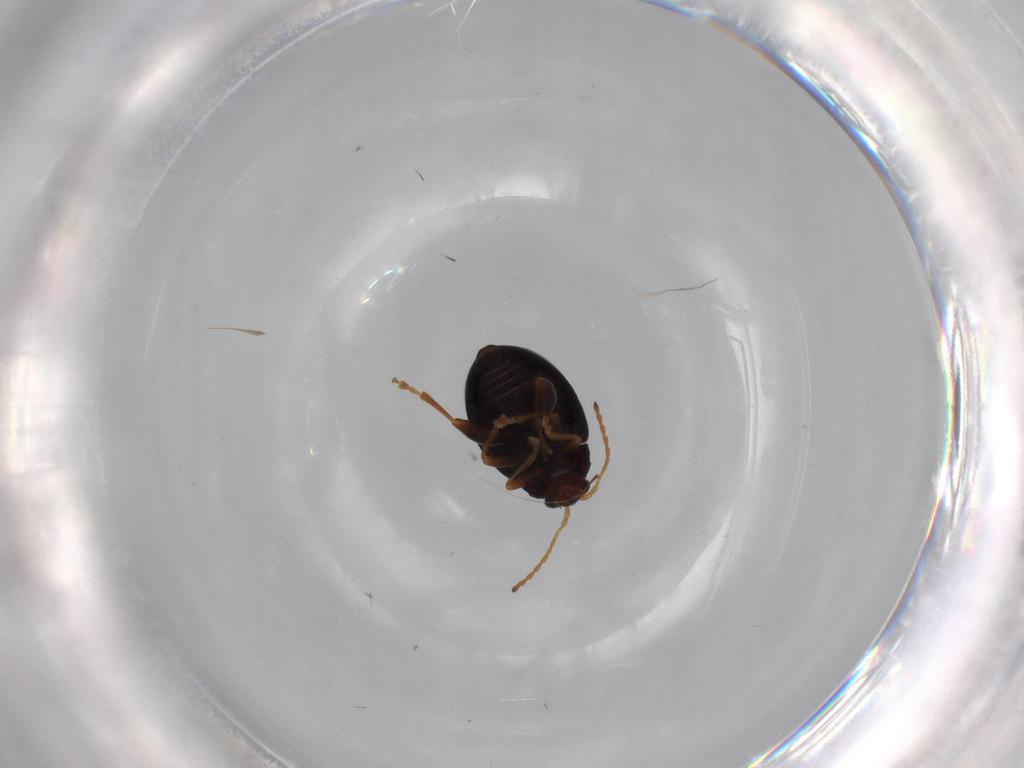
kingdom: Animalia
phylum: Arthropoda
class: Insecta
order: Coleoptera
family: Chrysomelidae
